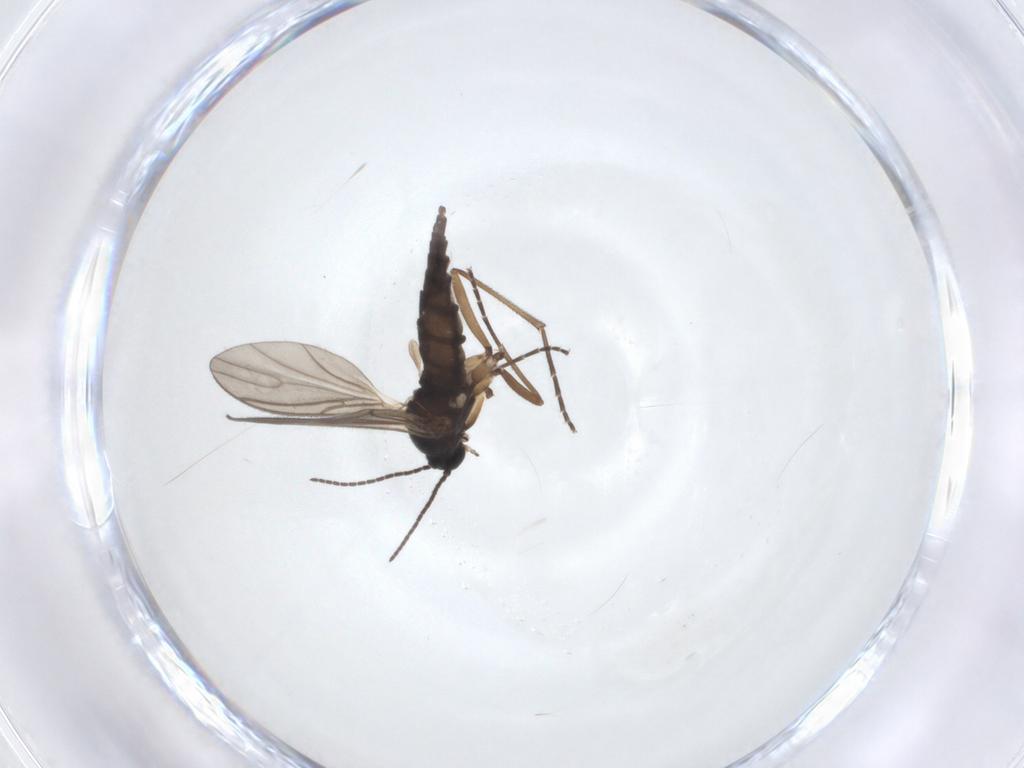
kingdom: Animalia
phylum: Arthropoda
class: Insecta
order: Diptera
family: Sciaridae
